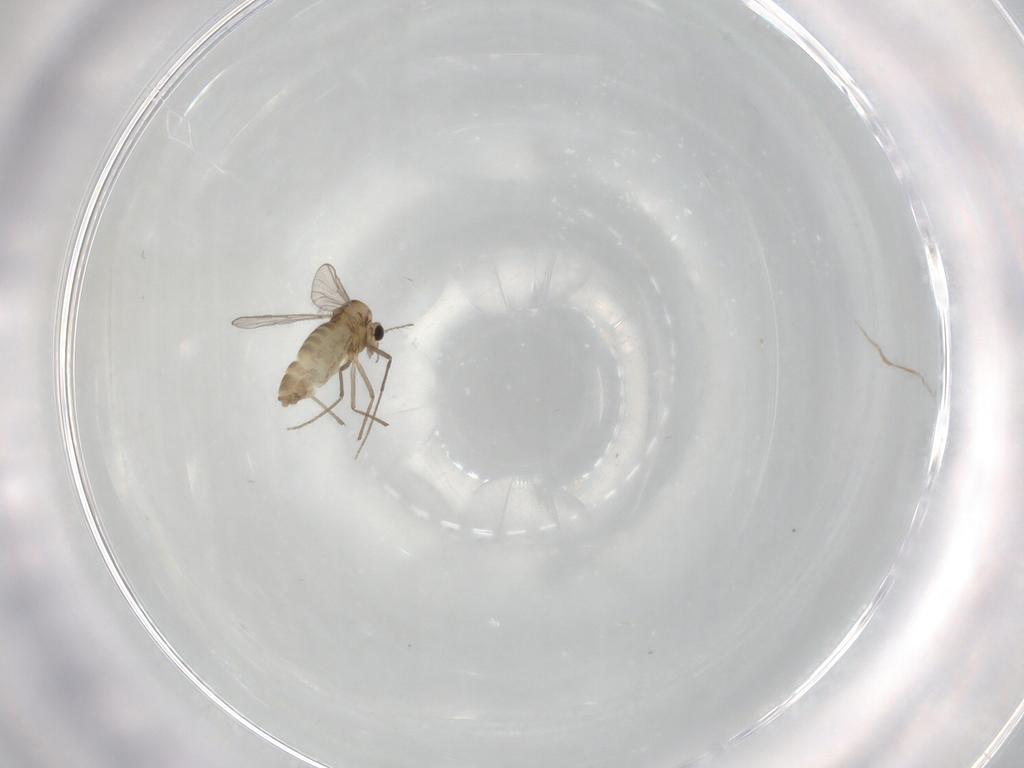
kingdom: Animalia
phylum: Arthropoda
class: Insecta
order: Diptera
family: Chironomidae
